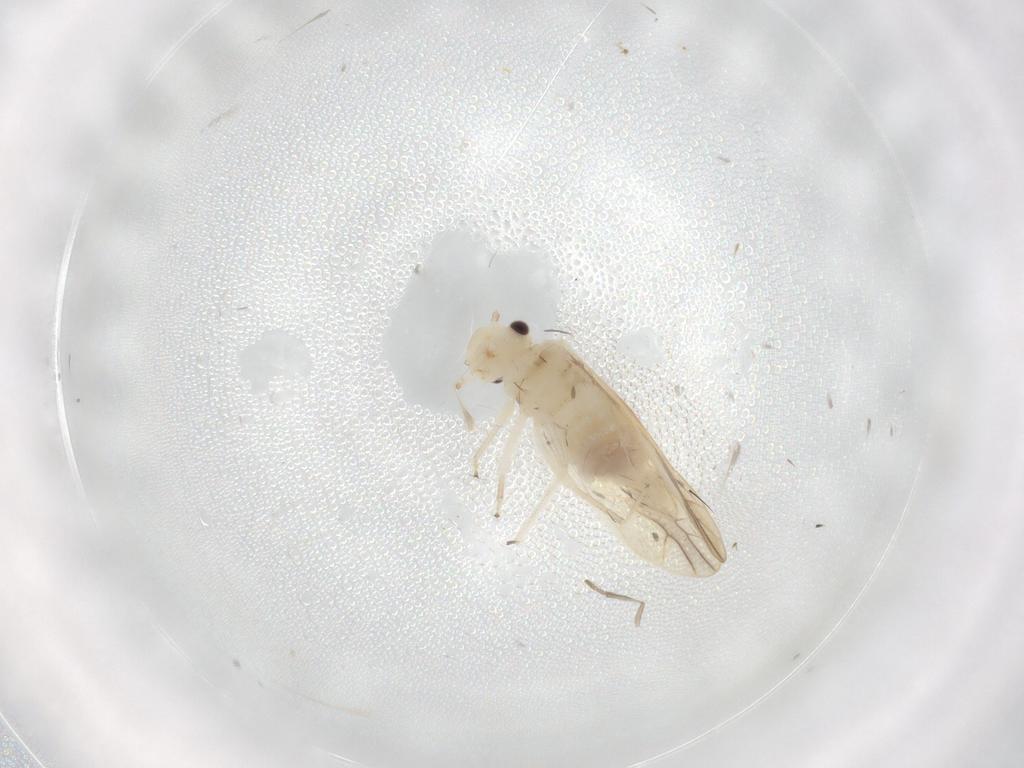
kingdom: Animalia
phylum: Arthropoda
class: Insecta
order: Psocodea
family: Caeciliusidae
